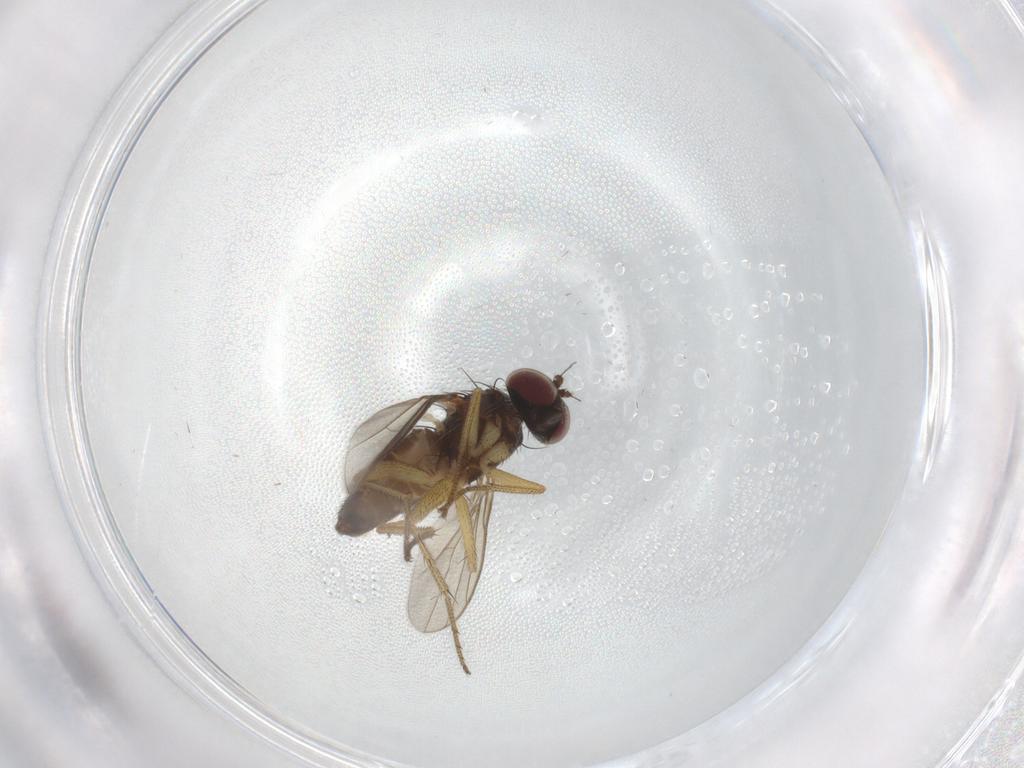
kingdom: Animalia
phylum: Arthropoda
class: Insecta
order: Diptera
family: Dolichopodidae
